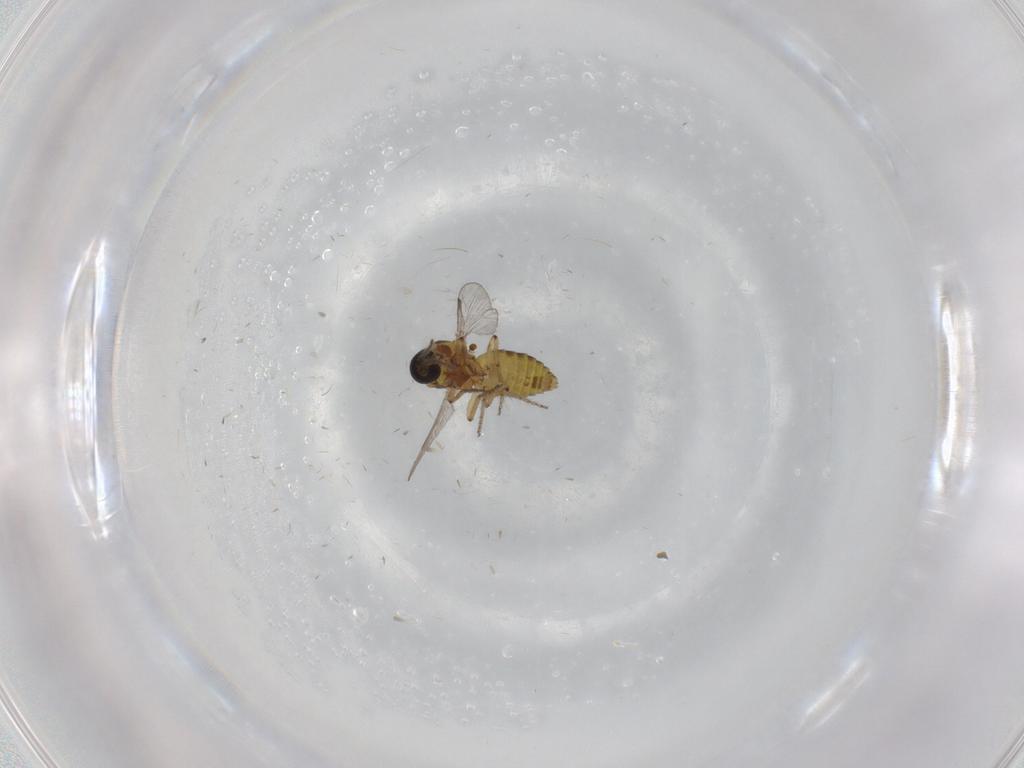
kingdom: Animalia
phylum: Arthropoda
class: Insecta
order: Diptera
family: Ceratopogonidae
